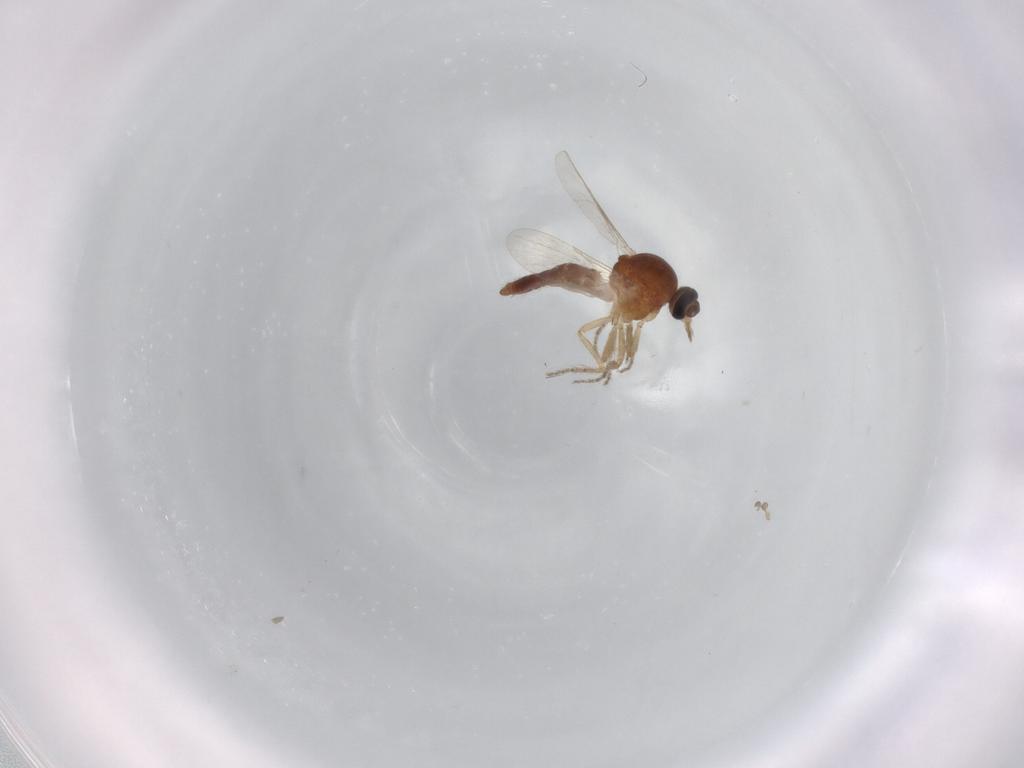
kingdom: Animalia
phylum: Arthropoda
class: Insecta
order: Diptera
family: Ceratopogonidae
